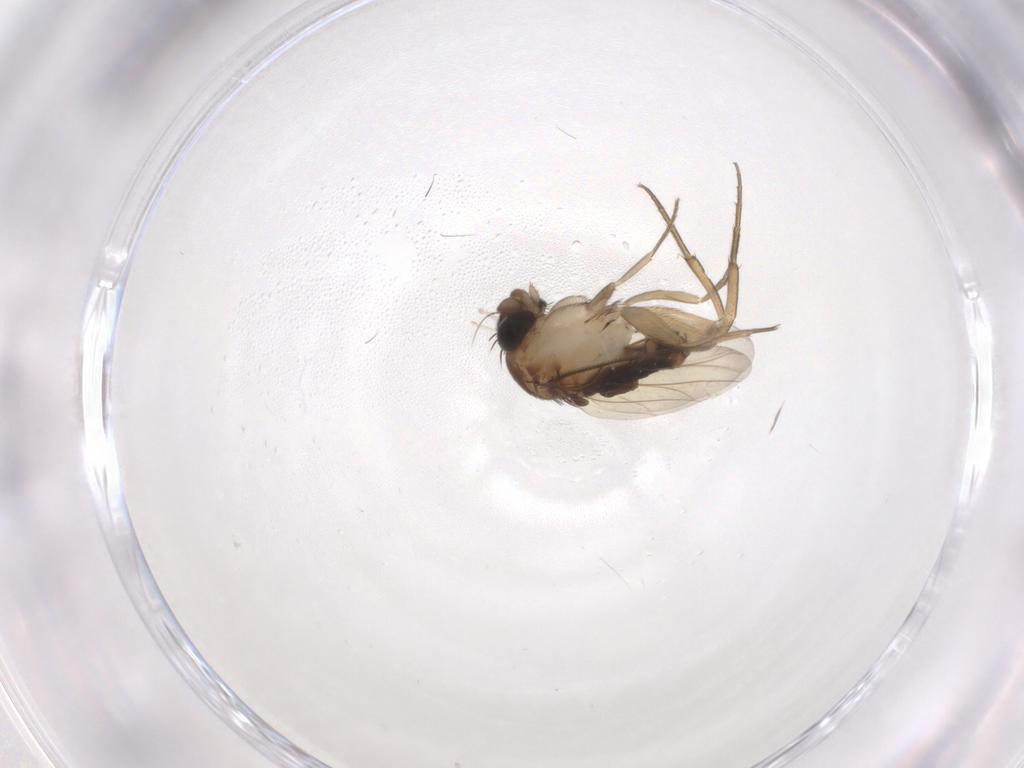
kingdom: Animalia
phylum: Arthropoda
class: Insecta
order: Diptera
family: Phoridae
